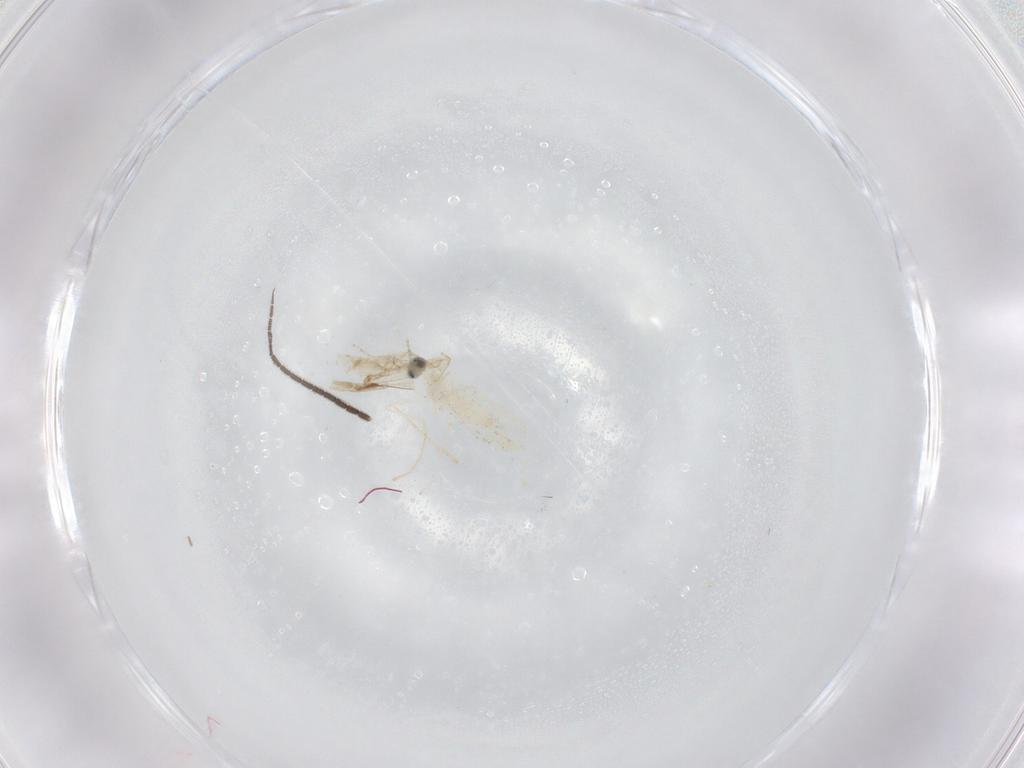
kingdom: Animalia
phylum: Arthropoda
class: Insecta
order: Diptera
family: Cecidomyiidae
